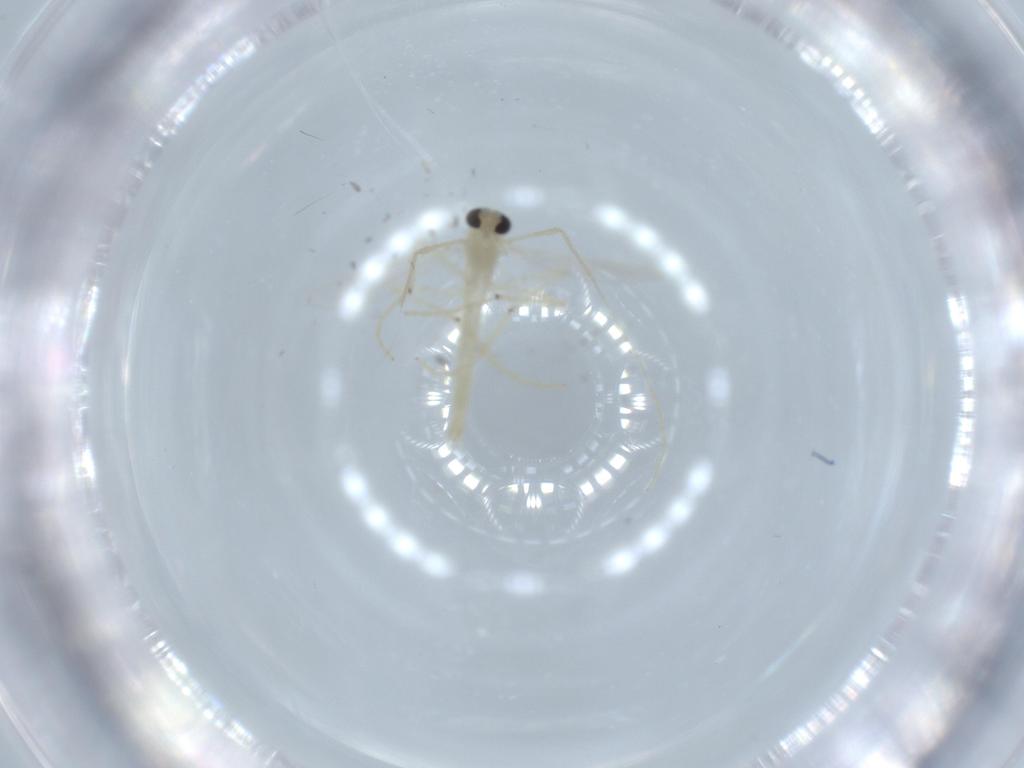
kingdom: Animalia
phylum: Arthropoda
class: Insecta
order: Diptera
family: Chironomidae
